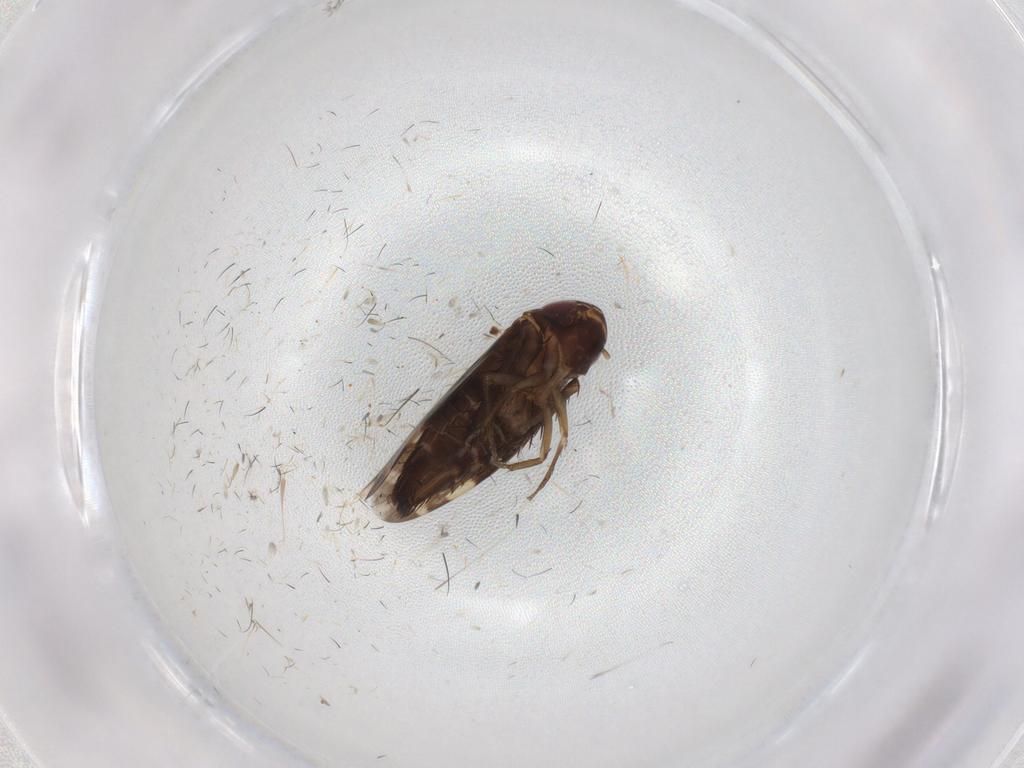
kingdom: Animalia
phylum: Arthropoda
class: Insecta
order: Hemiptera
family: Cicadellidae
